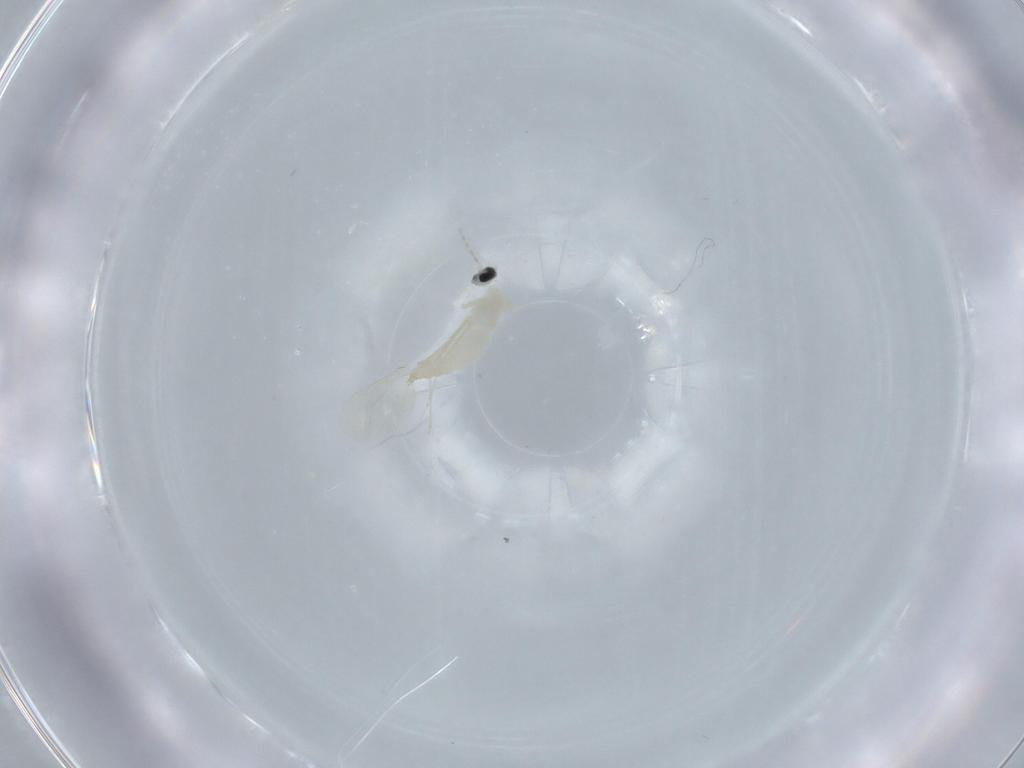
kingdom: Animalia
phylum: Arthropoda
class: Insecta
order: Diptera
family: Cecidomyiidae
